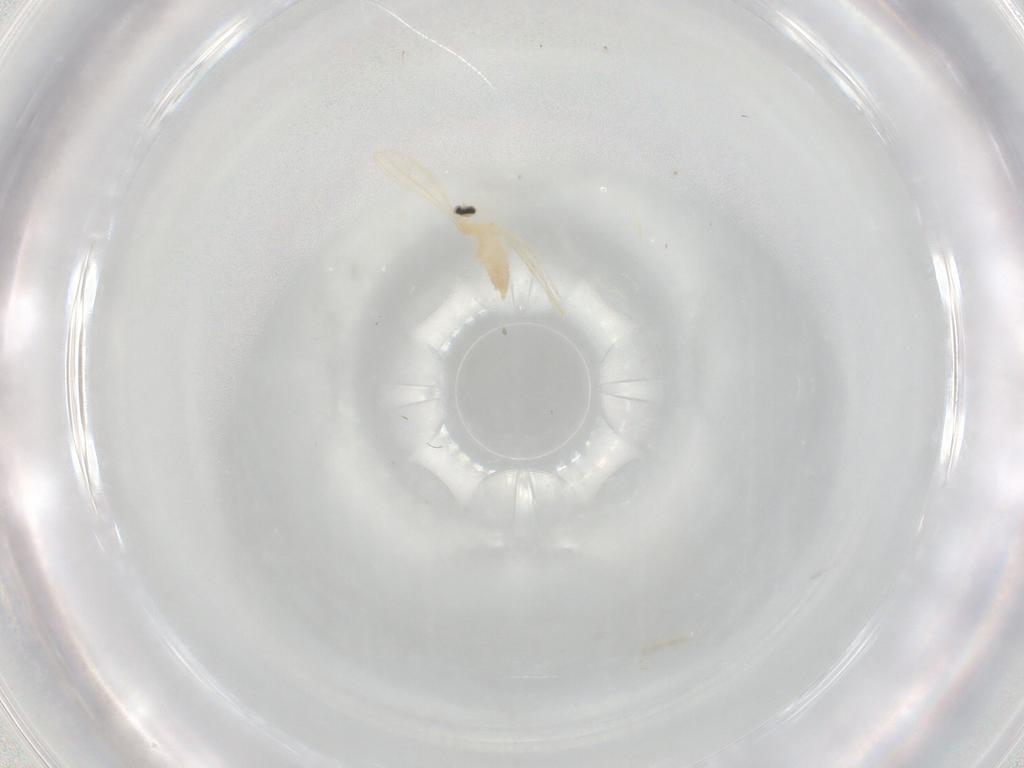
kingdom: Animalia
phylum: Arthropoda
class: Insecta
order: Diptera
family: Cecidomyiidae
